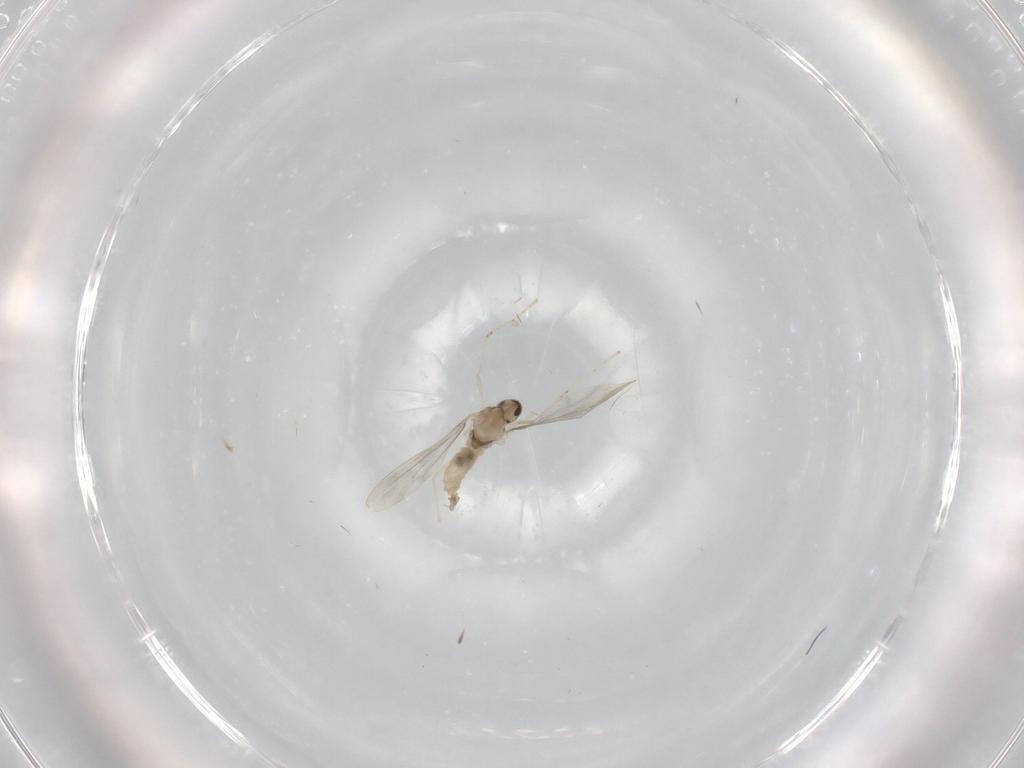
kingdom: Animalia
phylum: Arthropoda
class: Insecta
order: Diptera
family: Cecidomyiidae
